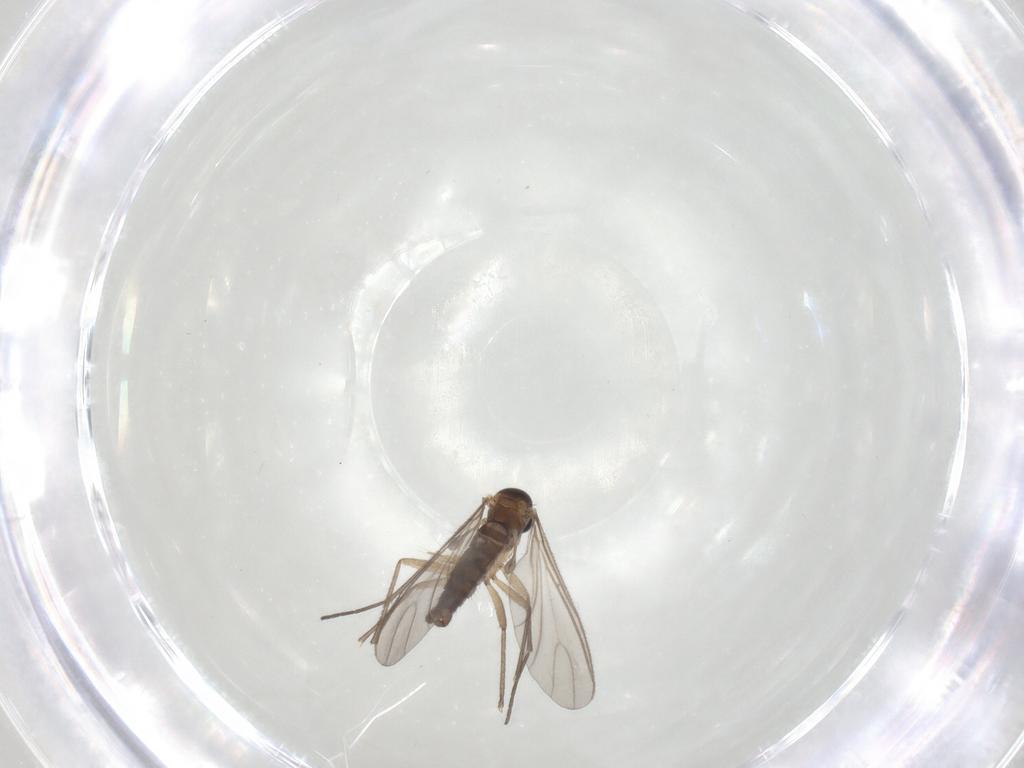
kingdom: Animalia
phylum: Arthropoda
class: Insecta
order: Diptera
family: Sciaridae
